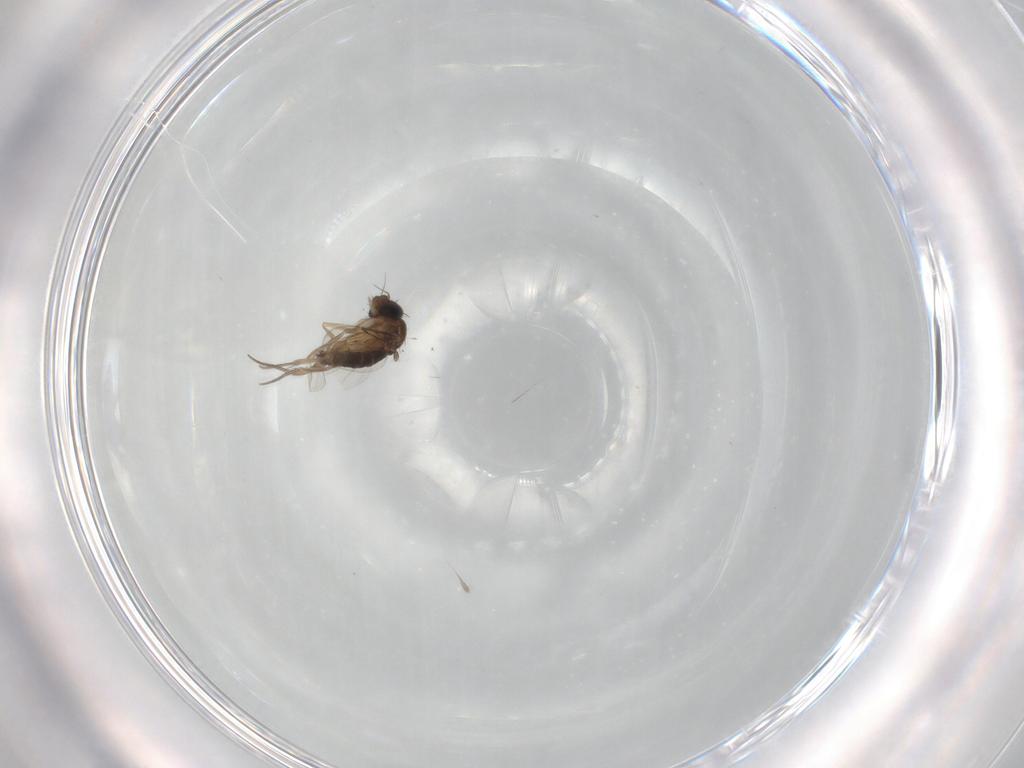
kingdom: Animalia
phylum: Arthropoda
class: Insecta
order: Diptera
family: Phoridae
